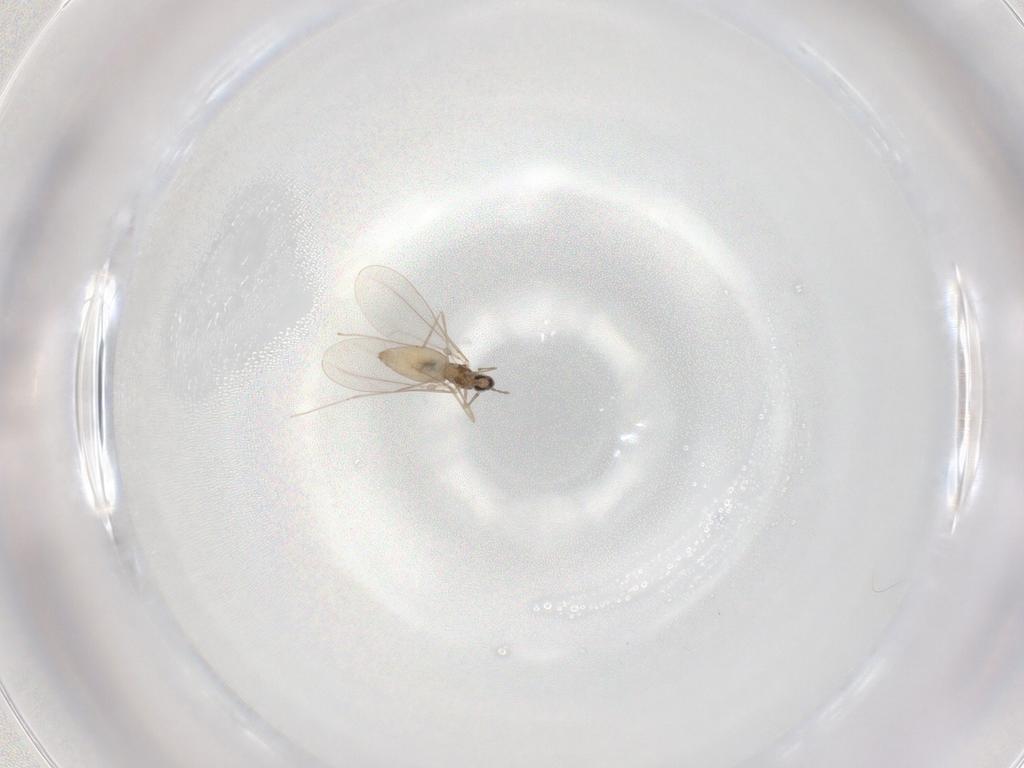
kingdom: Animalia
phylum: Arthropoda
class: Insecta
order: Diptera
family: Cecidomyiidae
